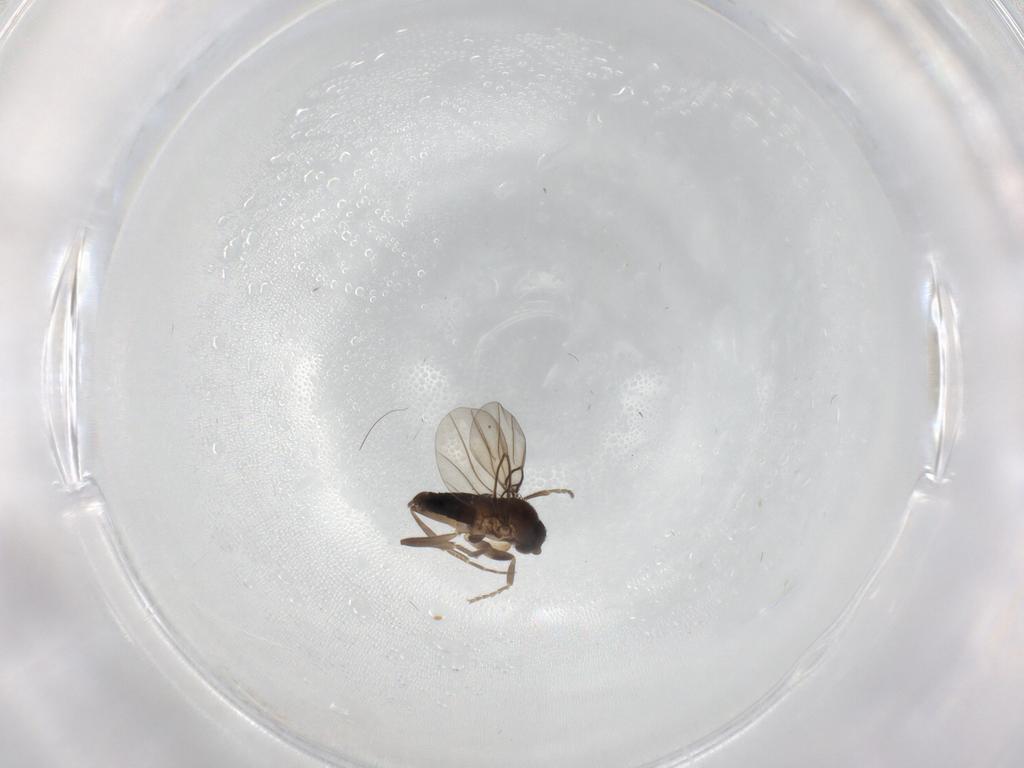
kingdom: Animalia
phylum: Arthropoda
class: Insecta
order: Diptera
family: Phoridae
